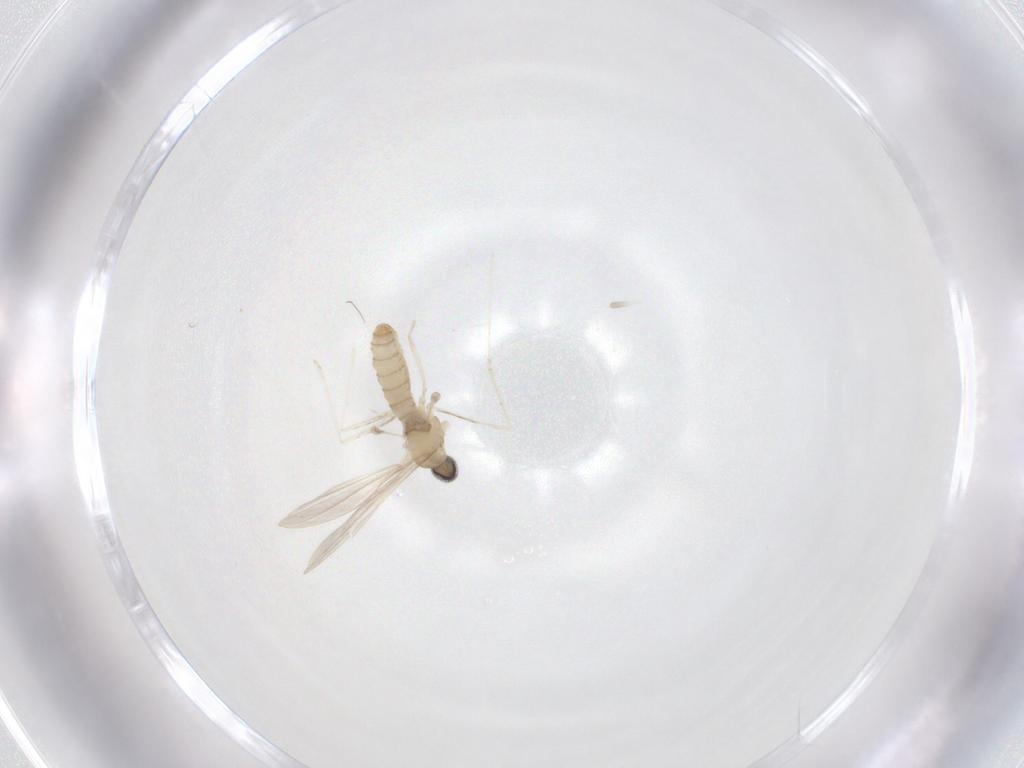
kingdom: Animalia
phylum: Arthropoda
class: Insecta
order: Diptera
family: Cecidomyiidae
